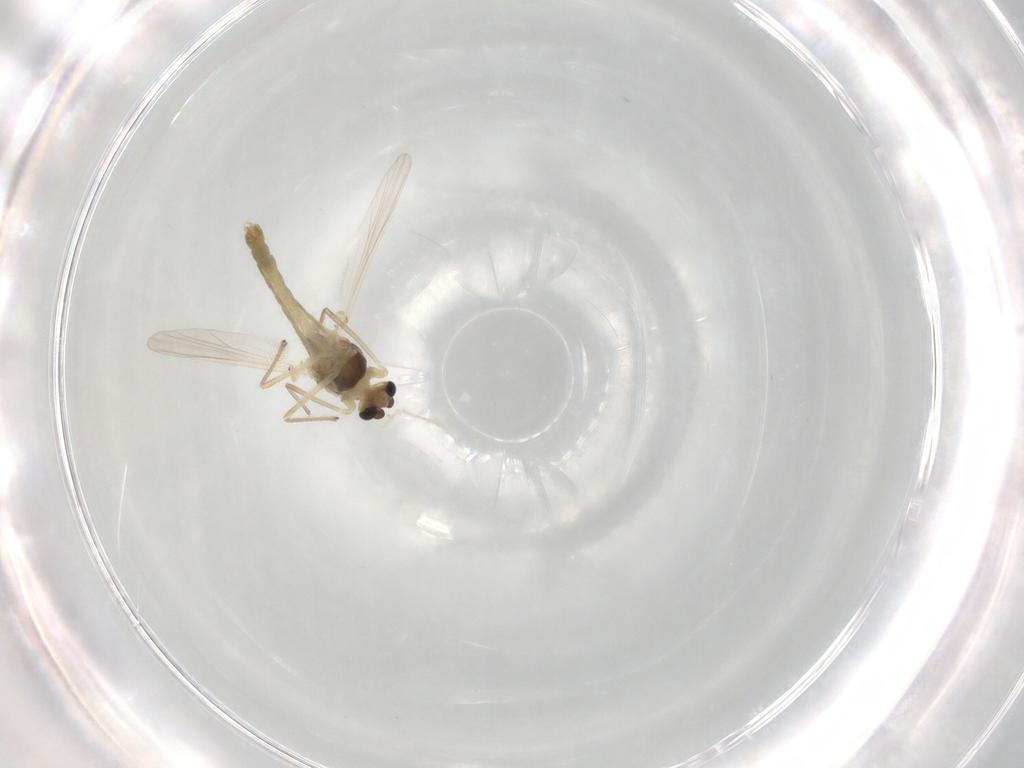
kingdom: Animalia
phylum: Arthropoda
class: Insecta
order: Diptera
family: Chironomidae
